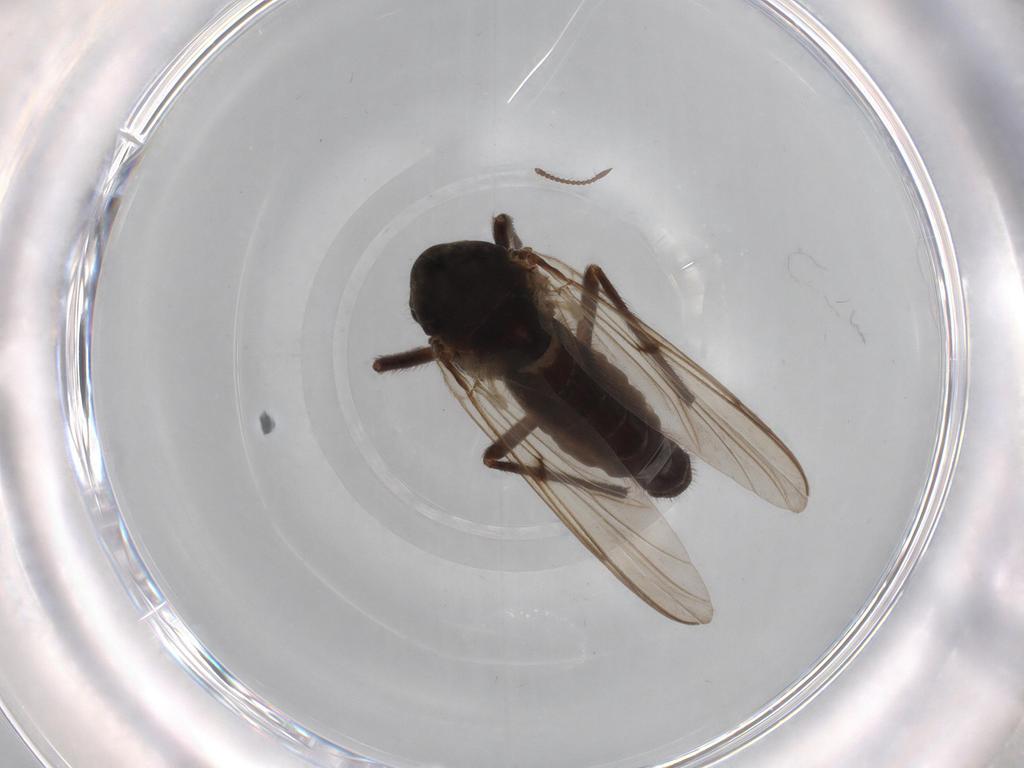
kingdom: Animalia
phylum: Arthropoda
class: Insecta
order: Diptera
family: Chironomidae
